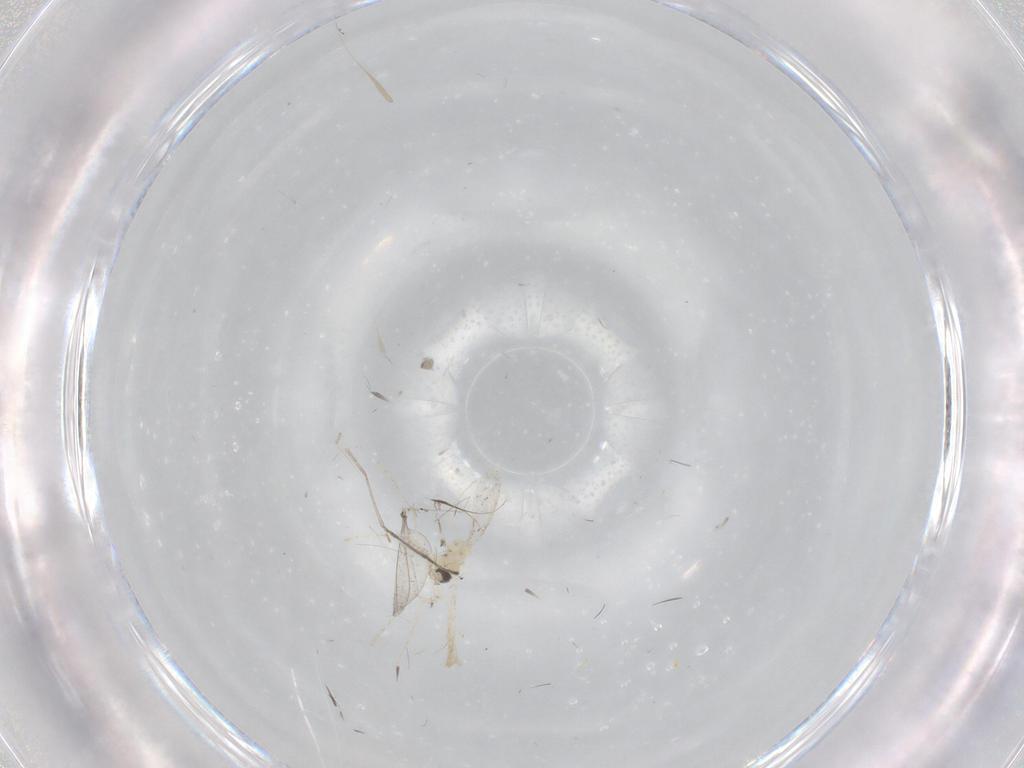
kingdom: Animalia
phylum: Arthropoda
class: Insecta
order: Diptera
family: Cecidomyiidae
